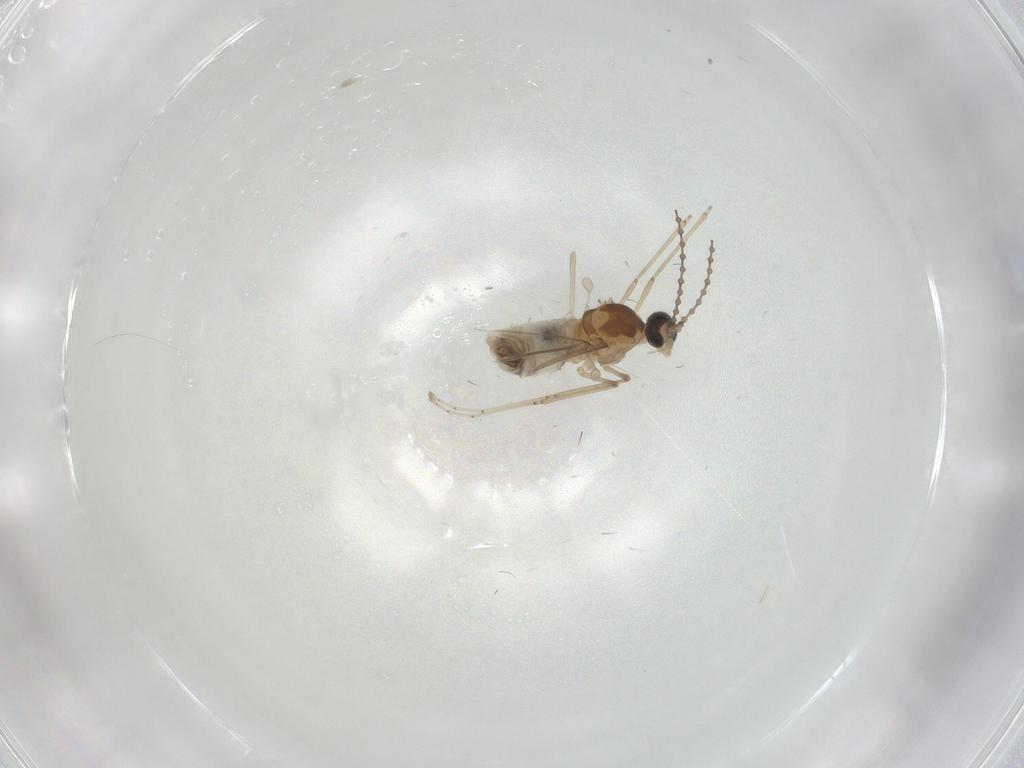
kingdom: Animalia
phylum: Arthropoda
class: Insecta
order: Diptera
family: Cecidomyiidae
